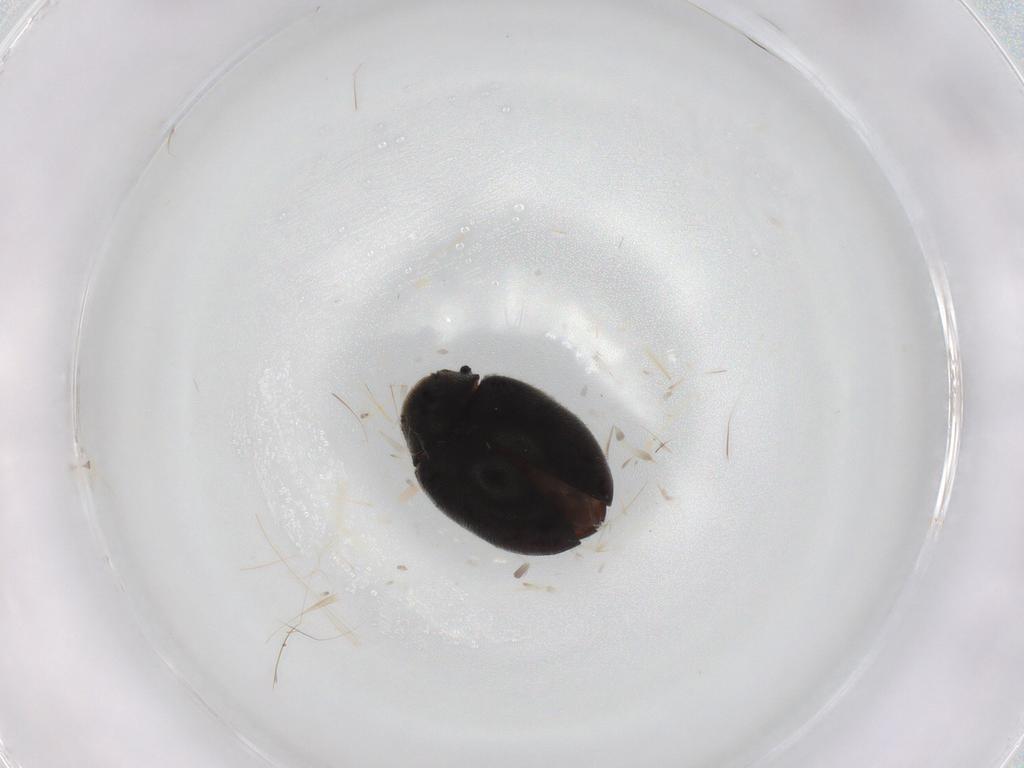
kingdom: Animalia
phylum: Arthropoda
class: Insecta
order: Coleoptera
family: Limnichidae
